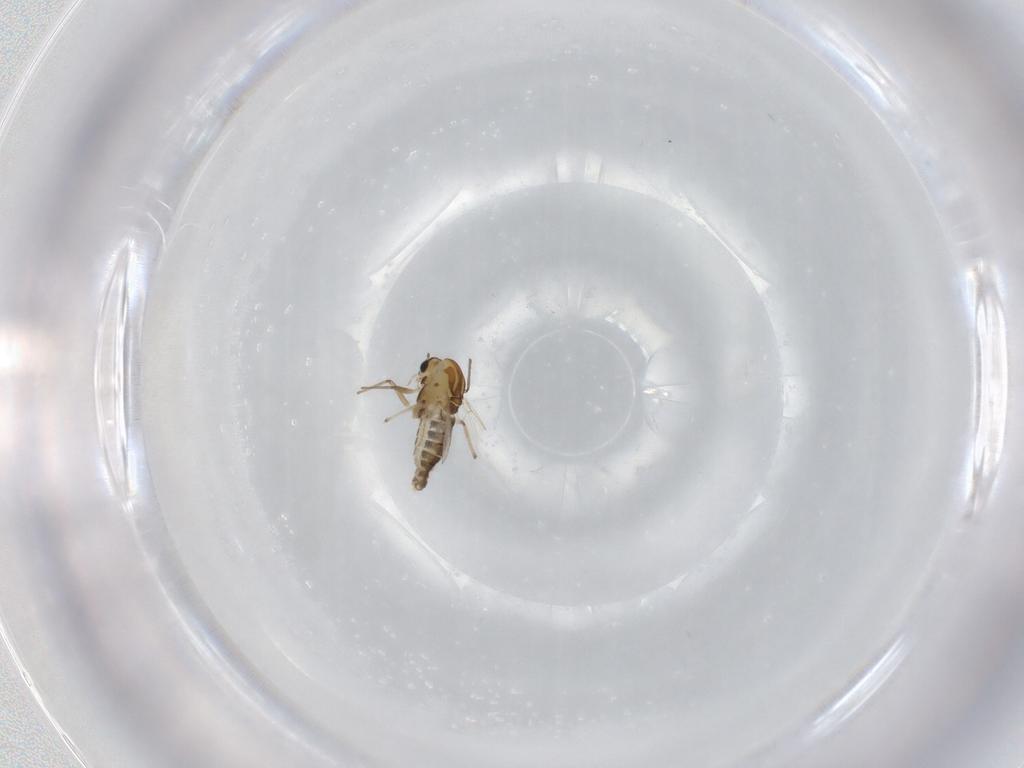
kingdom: Animalia
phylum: Arthropoda
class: Insecta
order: Diptera
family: Chironomidae
